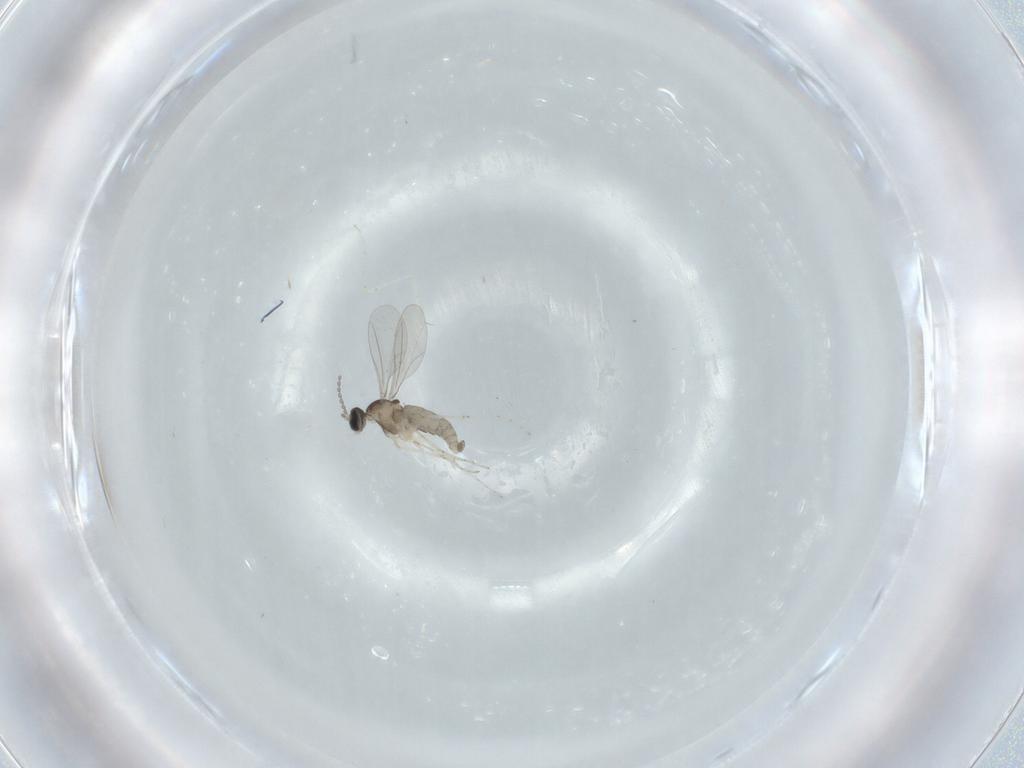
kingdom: Animalia
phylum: Arthropoda
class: Insecta
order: Diptera
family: Cecidomyiidae
